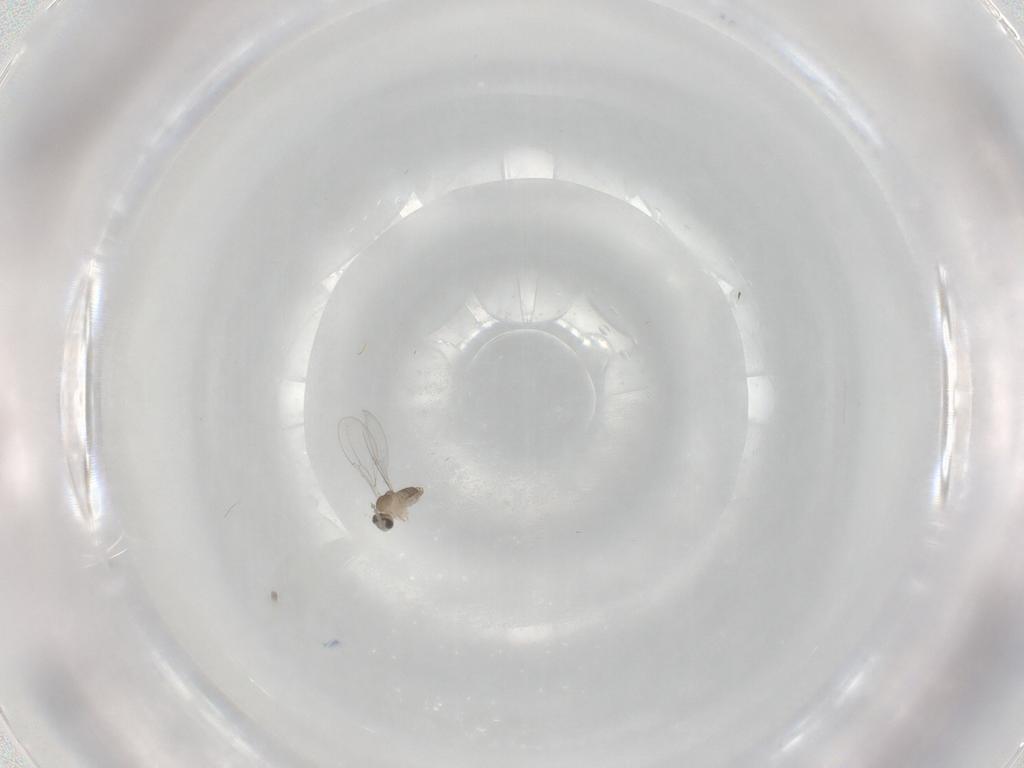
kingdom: Animalia
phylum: Arthropoda
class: Insecta
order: Diptera
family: Cecidomyiidae
